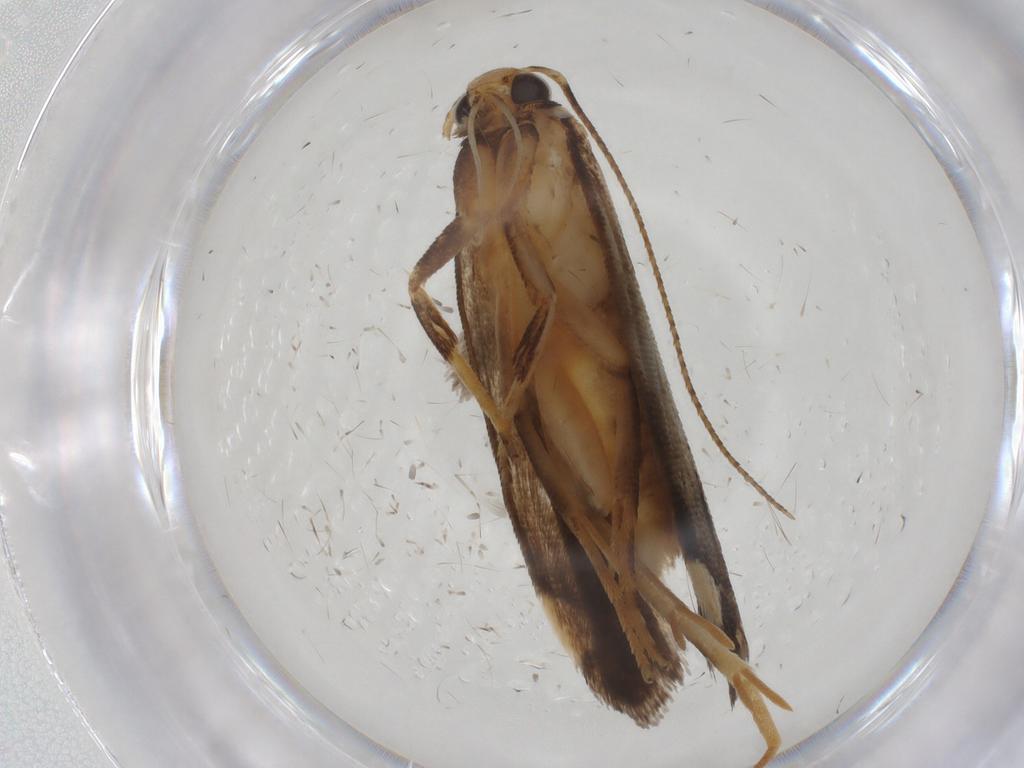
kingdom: Animalia
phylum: Arthropoda
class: Insecta
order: Lepidoptera
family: Gelechiidae
